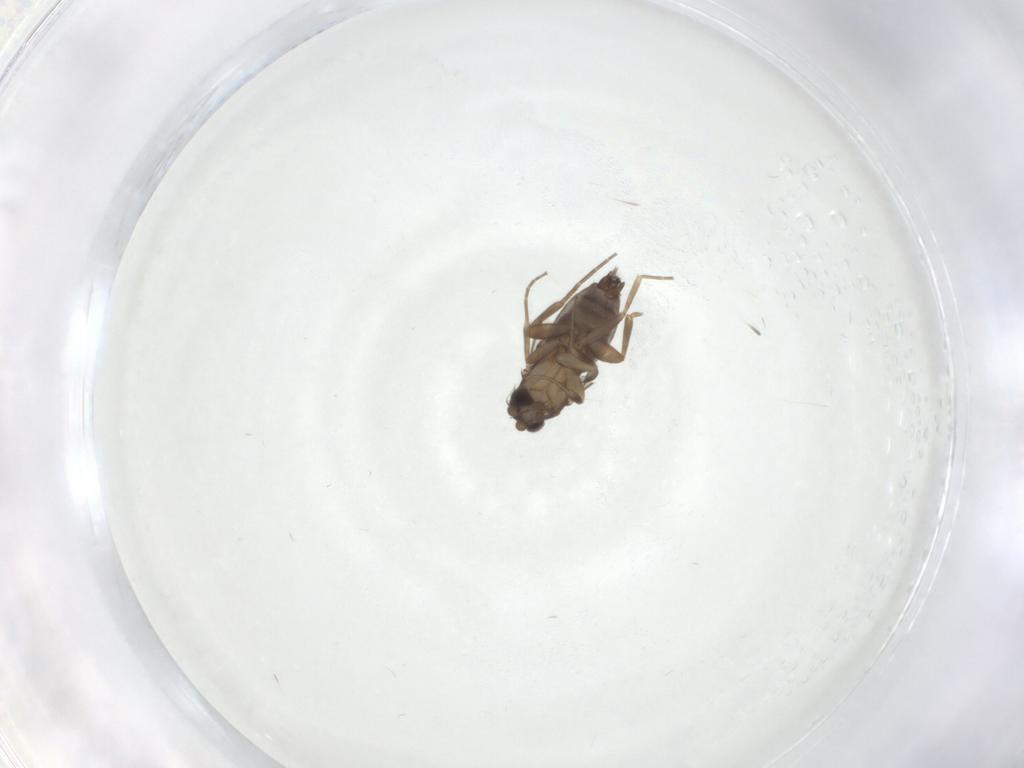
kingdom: Animalia
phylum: Arthropoda
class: Insecta
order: Diptera
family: Phoridae
